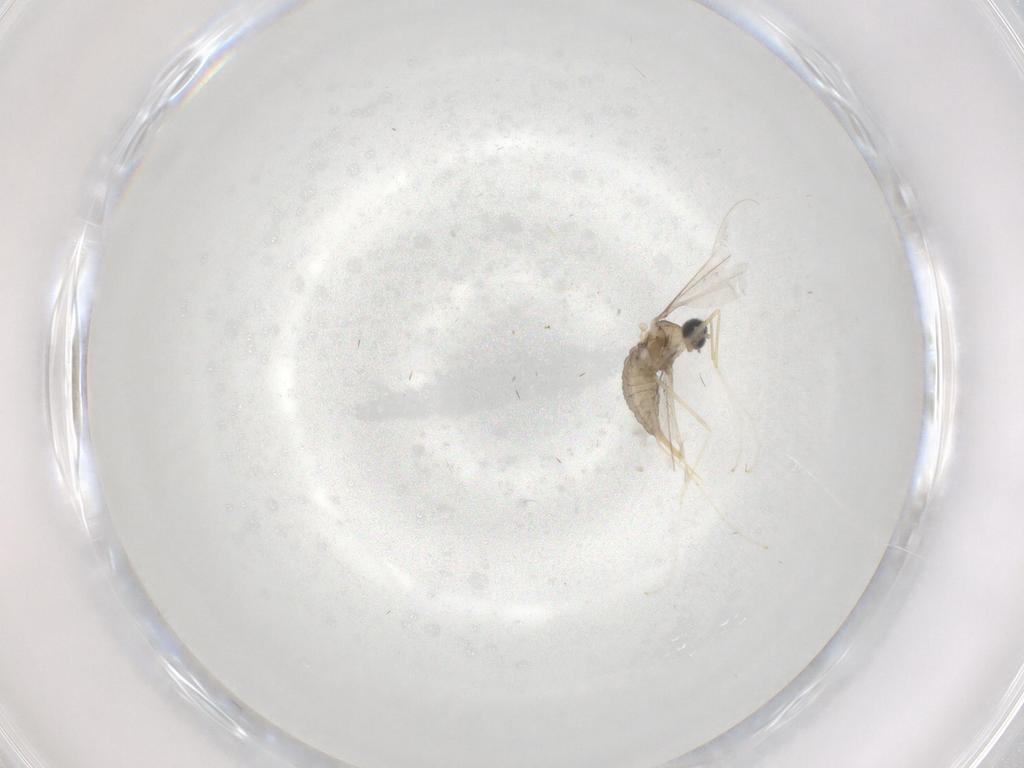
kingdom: Animalia
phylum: Arthropoda
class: Insecta
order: Diptera
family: Cecidomyiidae
